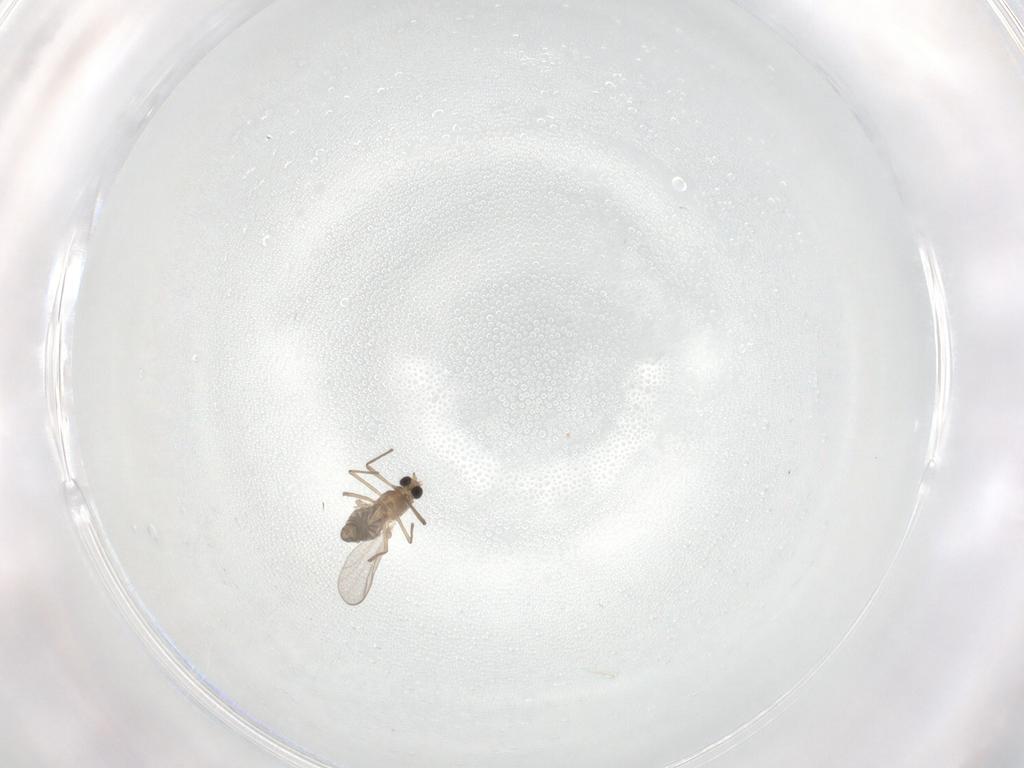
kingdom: Animalia
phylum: Arthropoda
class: Insecta
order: Diptera
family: Chironomidae
